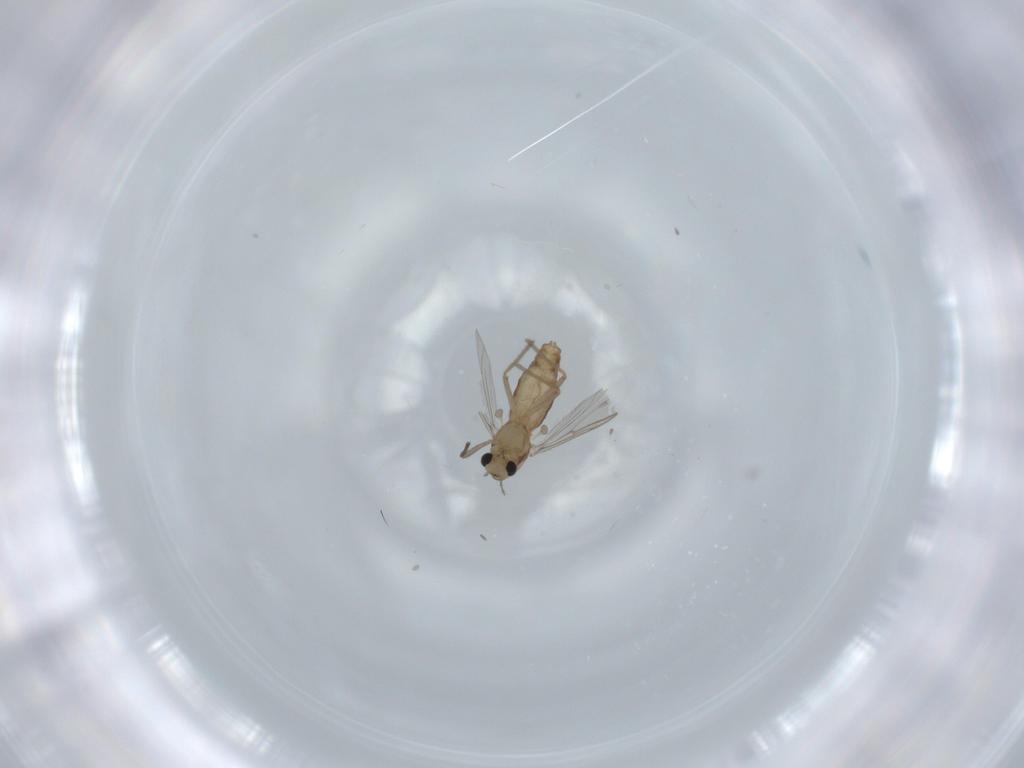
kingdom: Animalia
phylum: Arthropoda
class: Insecta
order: Diptera
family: Chironomidae
